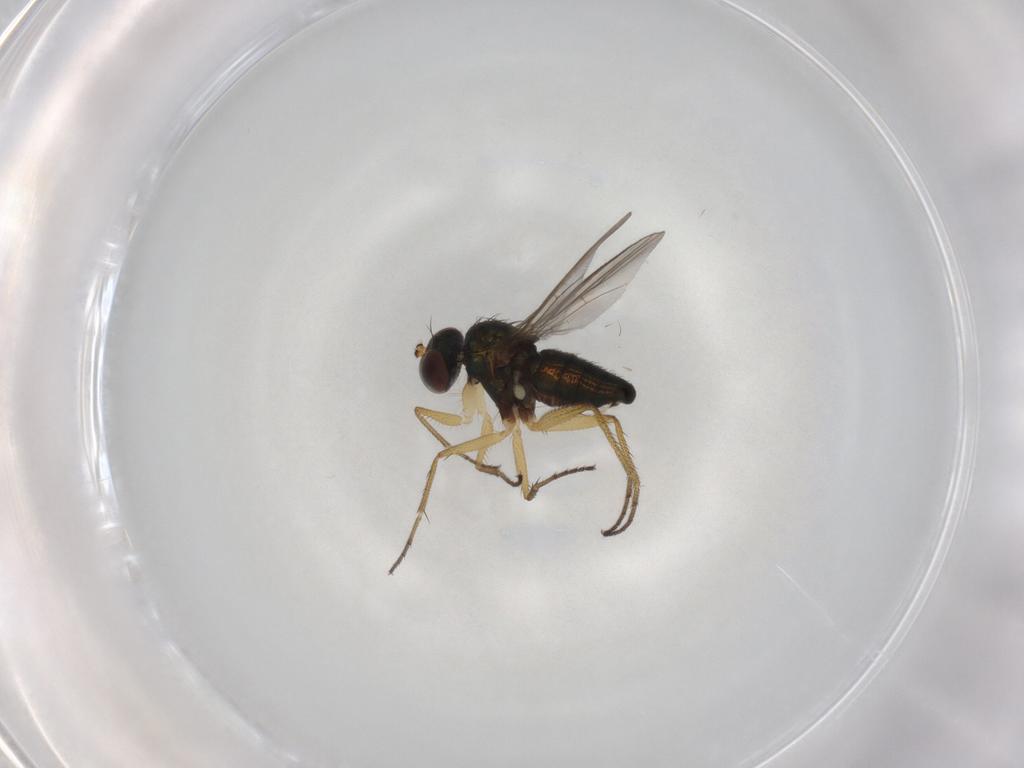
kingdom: Animalia
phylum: Arthropoda
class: Insecta
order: Diptera
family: Dolichopodidae
